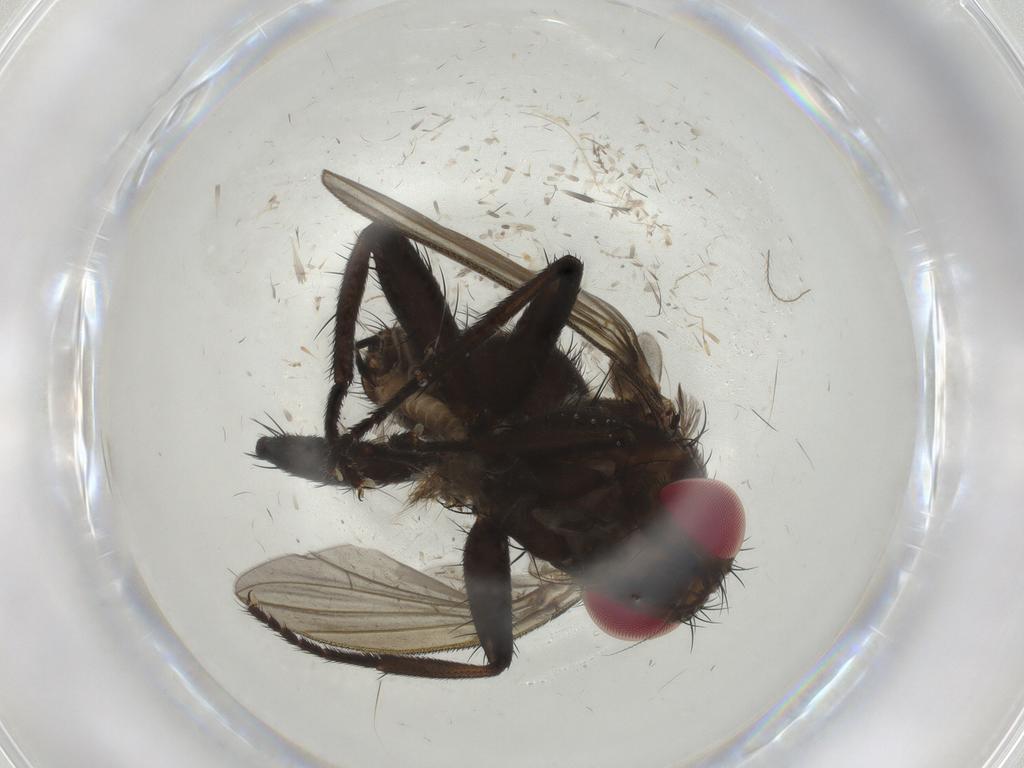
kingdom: Animalia
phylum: Arthropoda
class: Insecta
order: Diptera
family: Chironomidae
